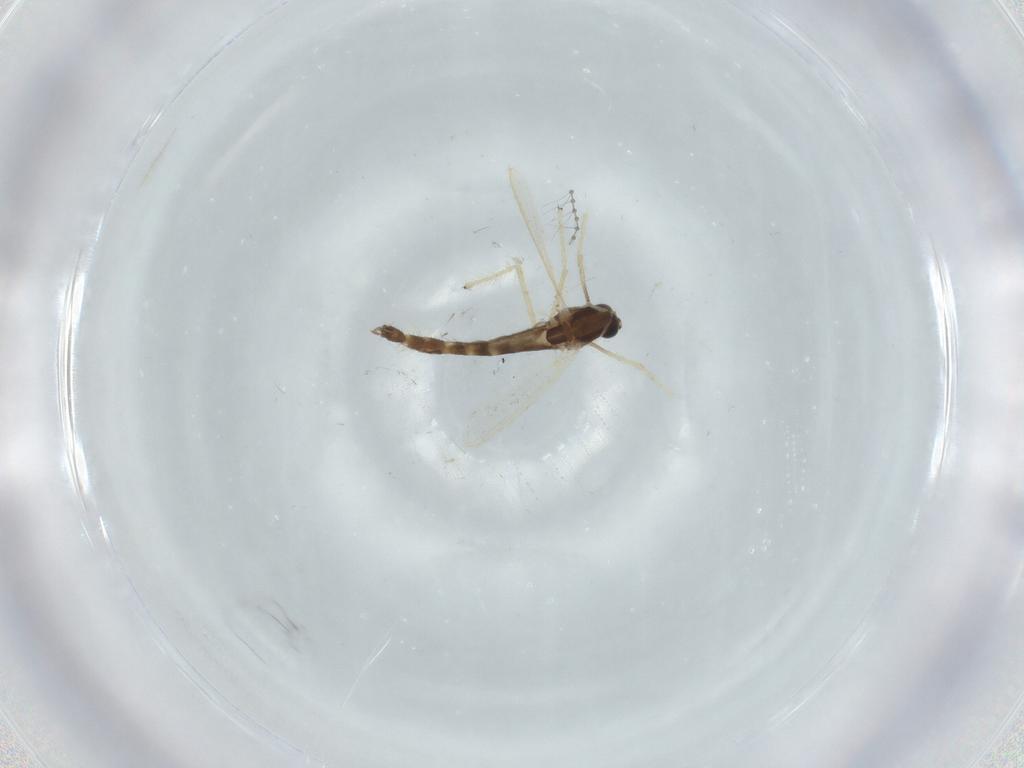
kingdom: Animalia
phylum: Arthropoda
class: Insecta
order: Diptera
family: Chironomidae
